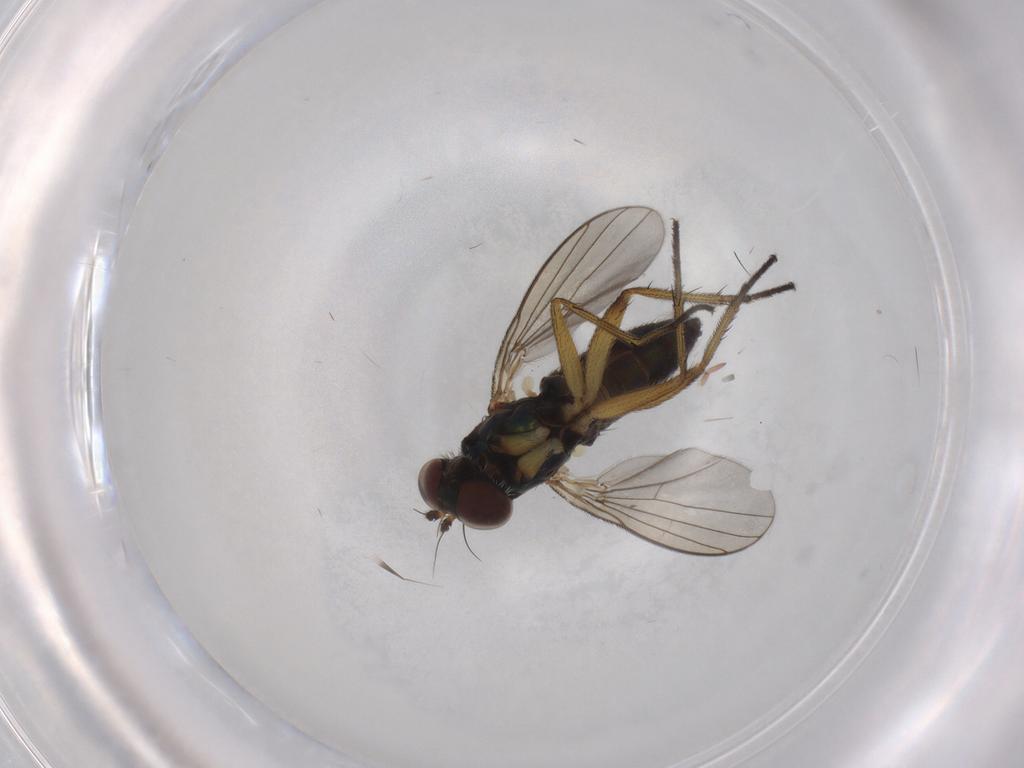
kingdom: Animalia
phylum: Arthropoda
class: Insecta
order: Diptera
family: Dolichopodidae
